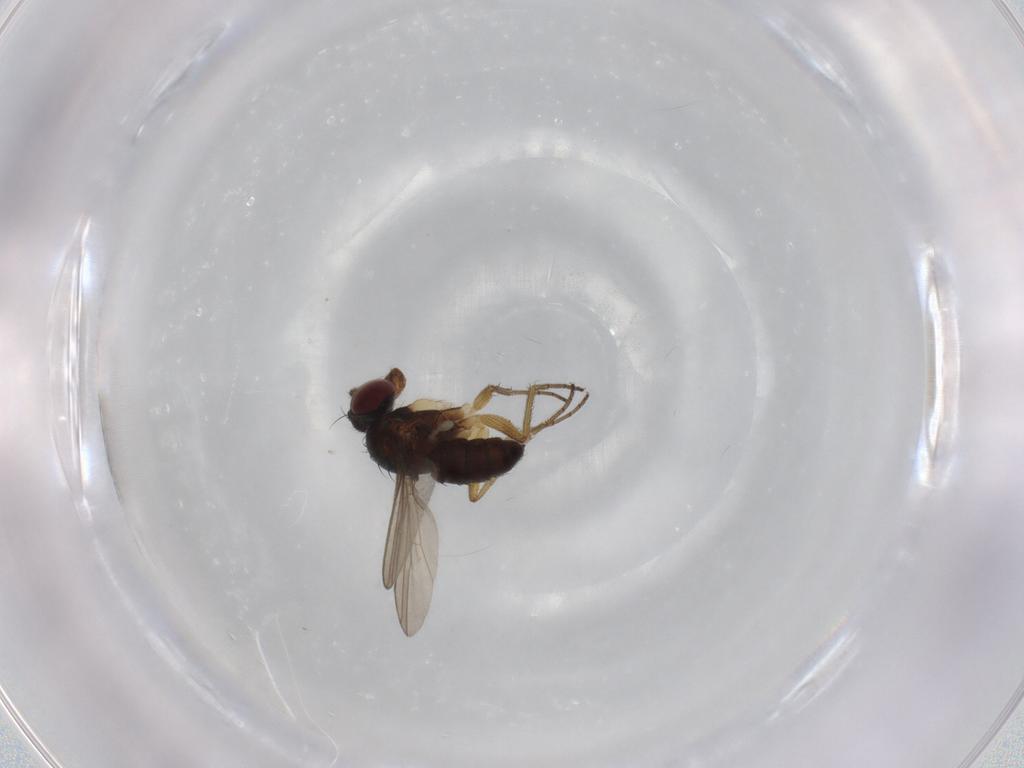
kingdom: Animalia
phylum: Arthropoda
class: Insecta
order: Diptera
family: Dolichopodidae
